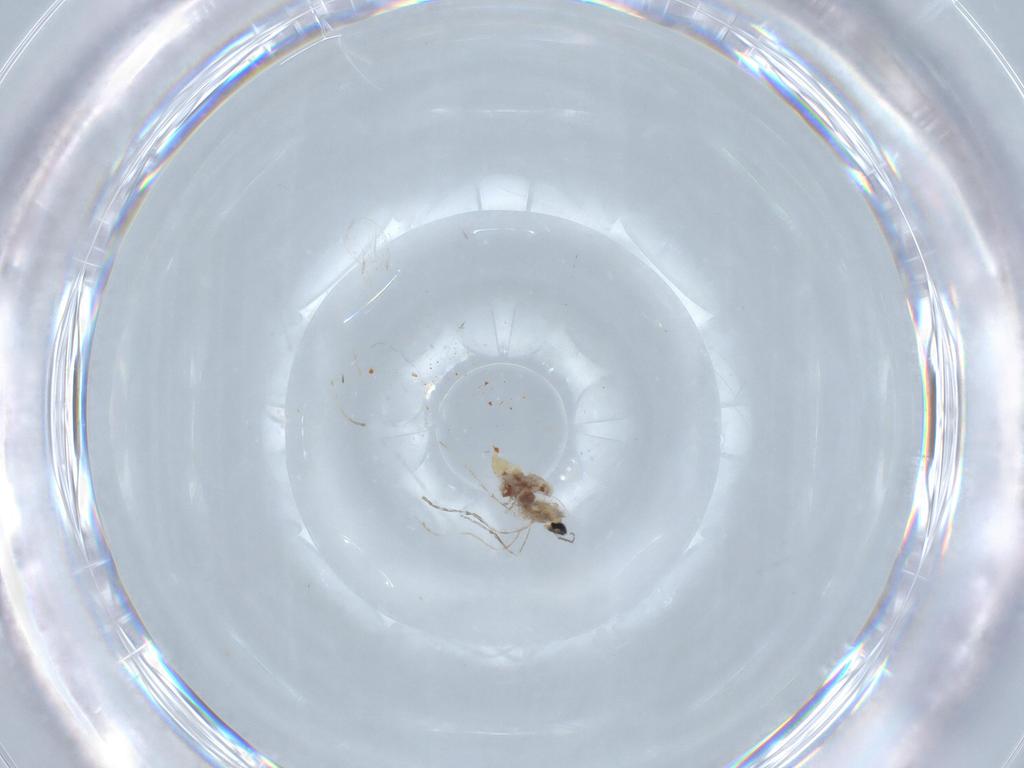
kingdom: Animalia
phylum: Arthropoda
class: Insecta
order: Diptera
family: Cecidomyiidae
